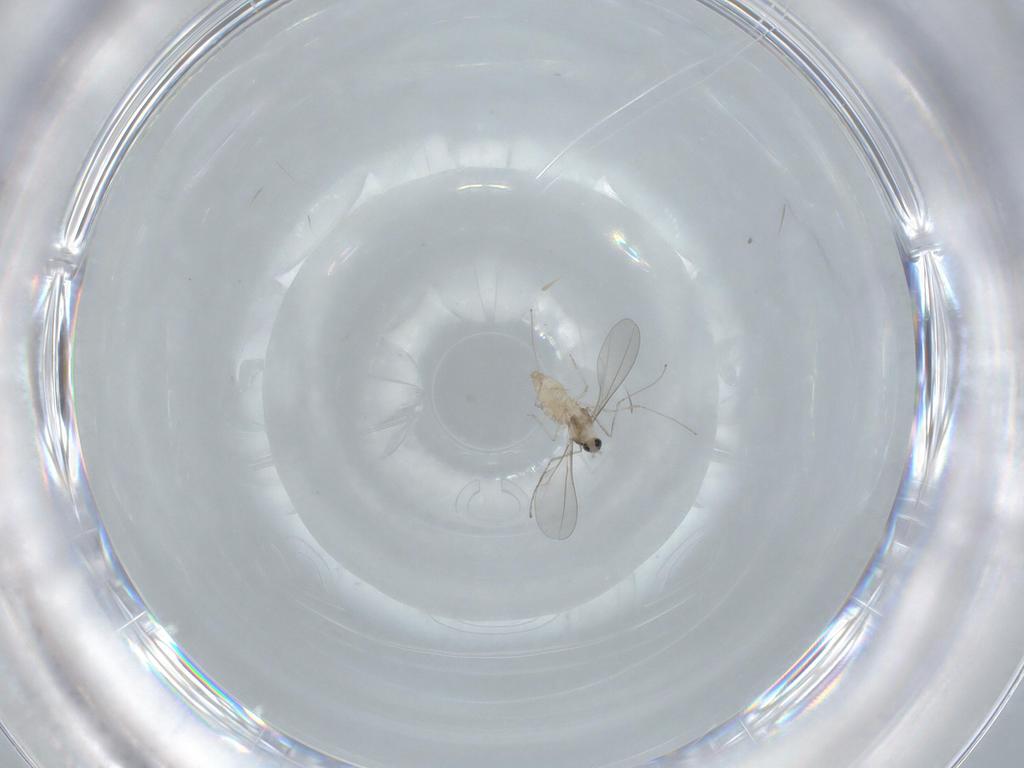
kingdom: Animalia
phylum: Arthropoda
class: Insecta
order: Diptera
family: Cecidomyiidae
